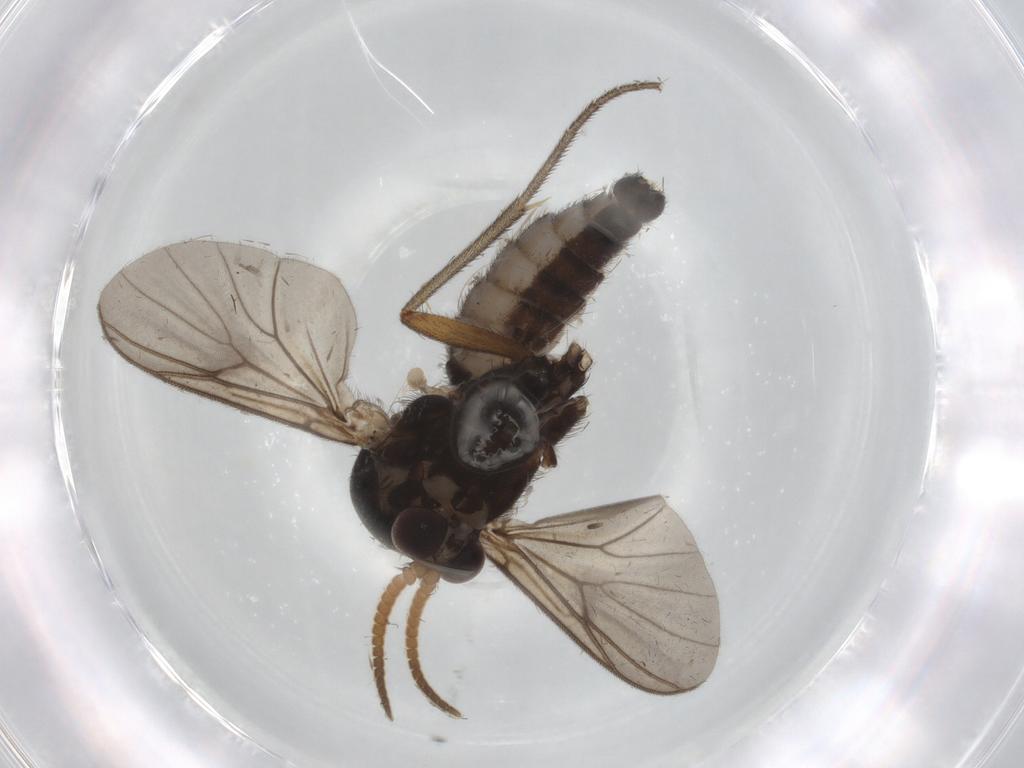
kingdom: Animalia
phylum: Arthropoda
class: Insecta
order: Diptera
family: Mycetophilidae
